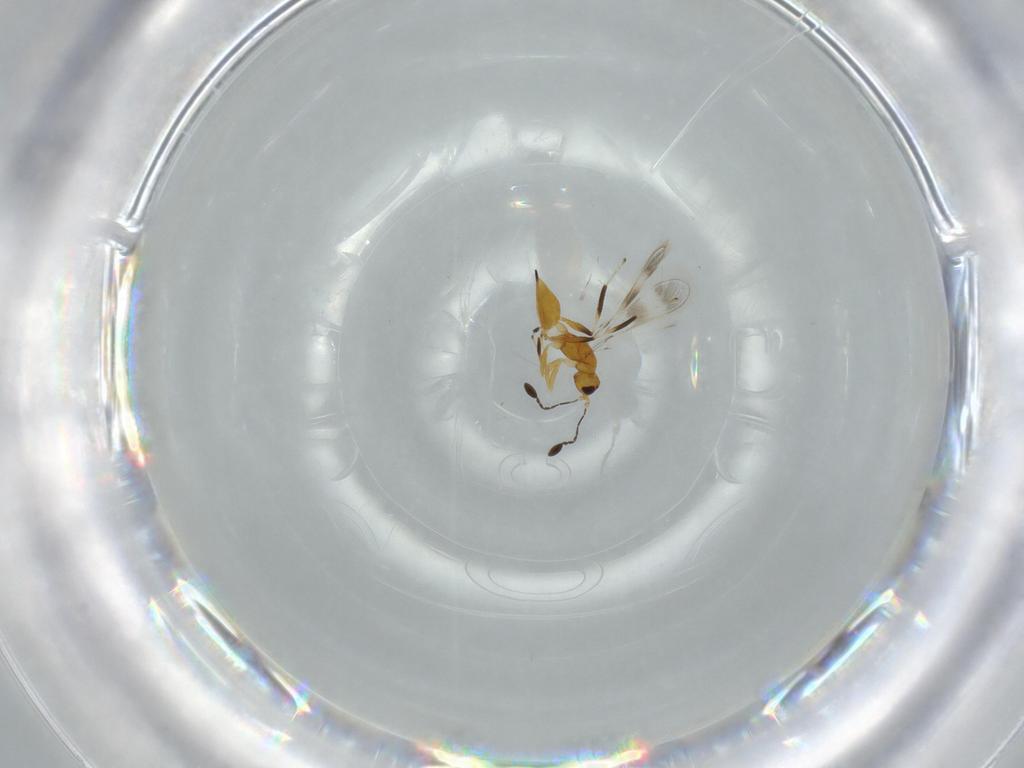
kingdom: Animalia
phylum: Arthropoda
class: Insecta
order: Hymenoptera
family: Mymaridae
